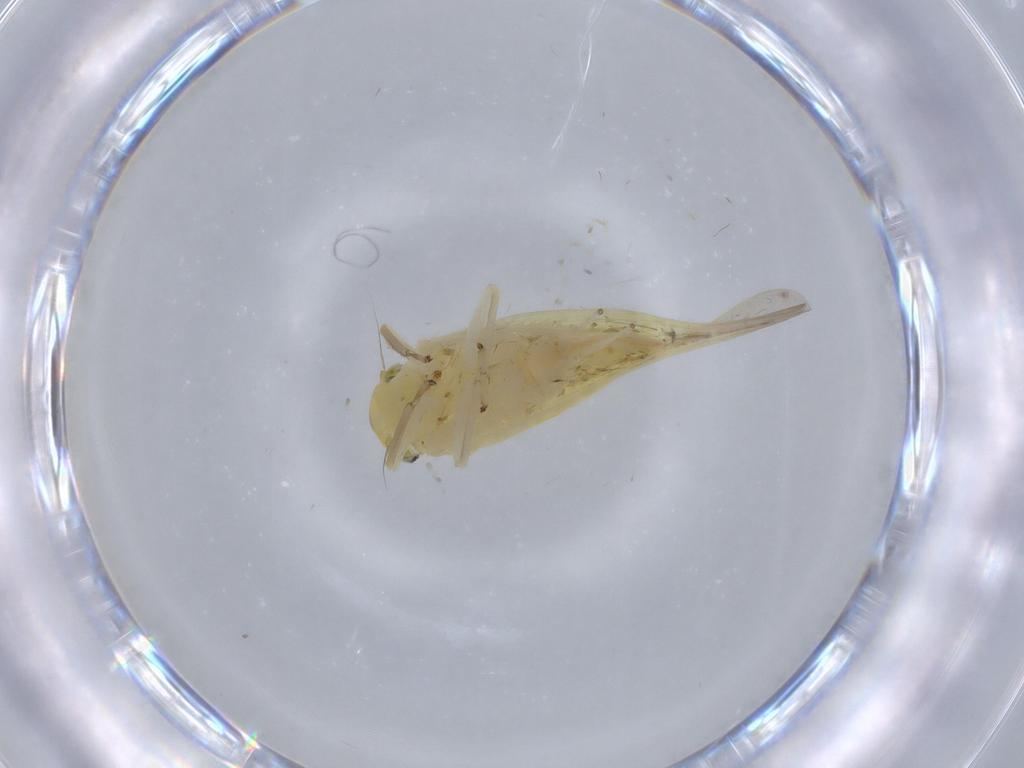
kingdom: Animalia
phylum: Arthropoda
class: Insecta
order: Hemiptera
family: Cicadellidae
